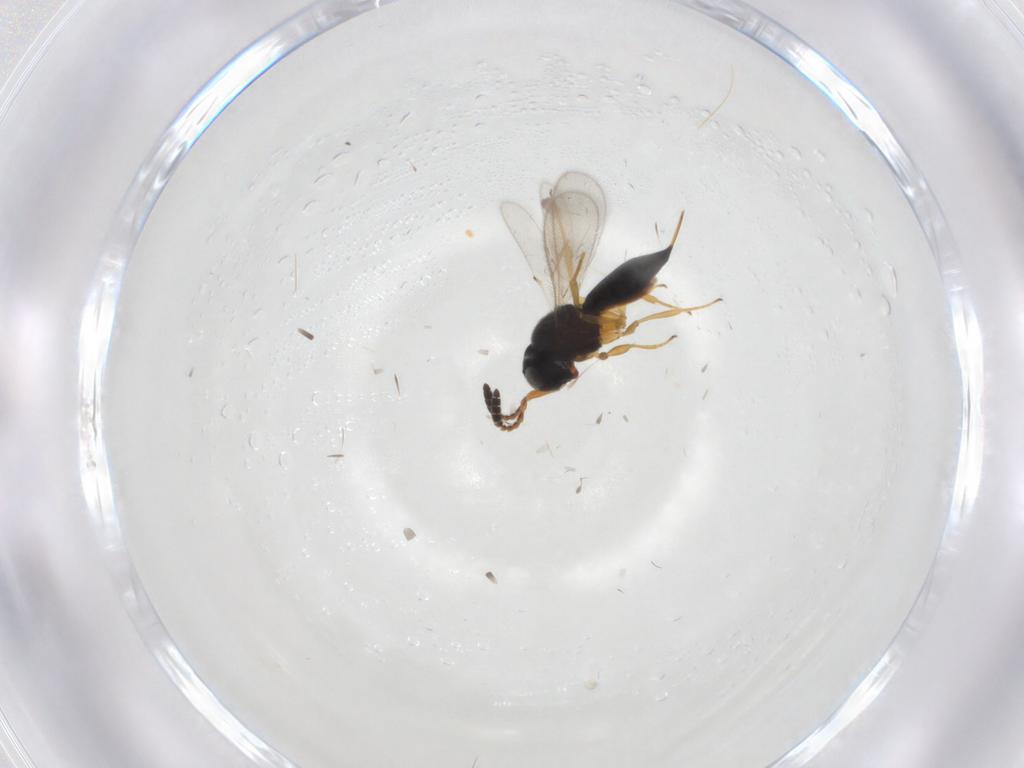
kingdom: Animalia
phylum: Arthropoda
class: Insecta
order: Hymenoptera
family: Scelionidae
